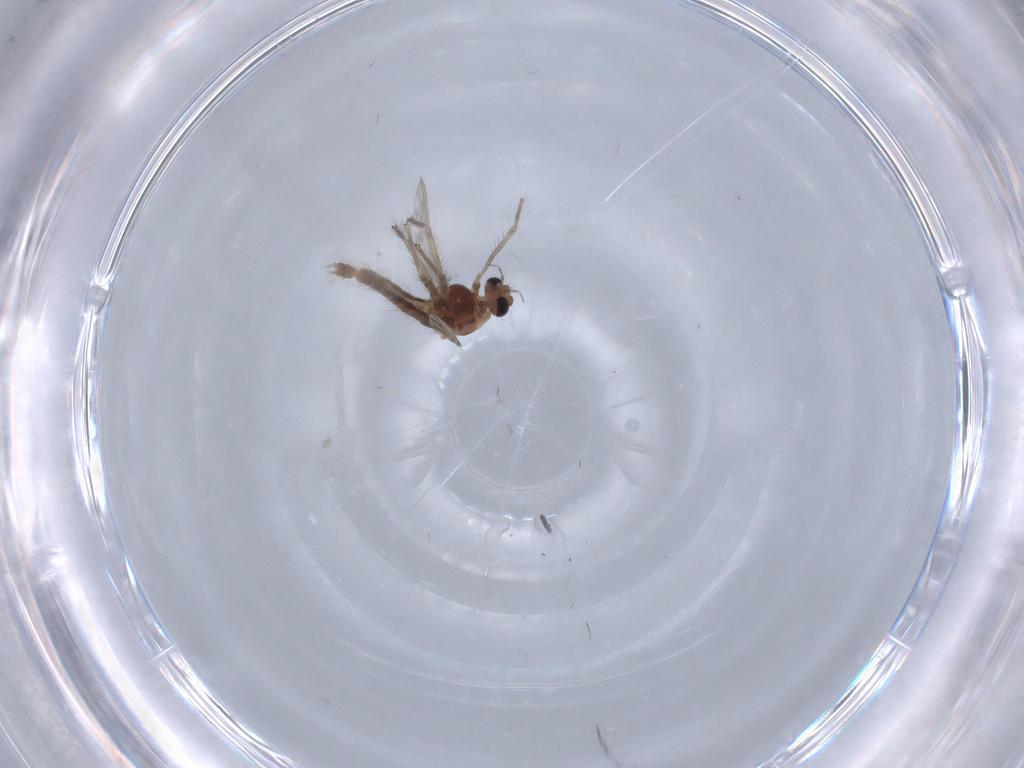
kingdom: Animalia
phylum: Arthropoda
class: Insecta
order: Diptera
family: Chironomidae
